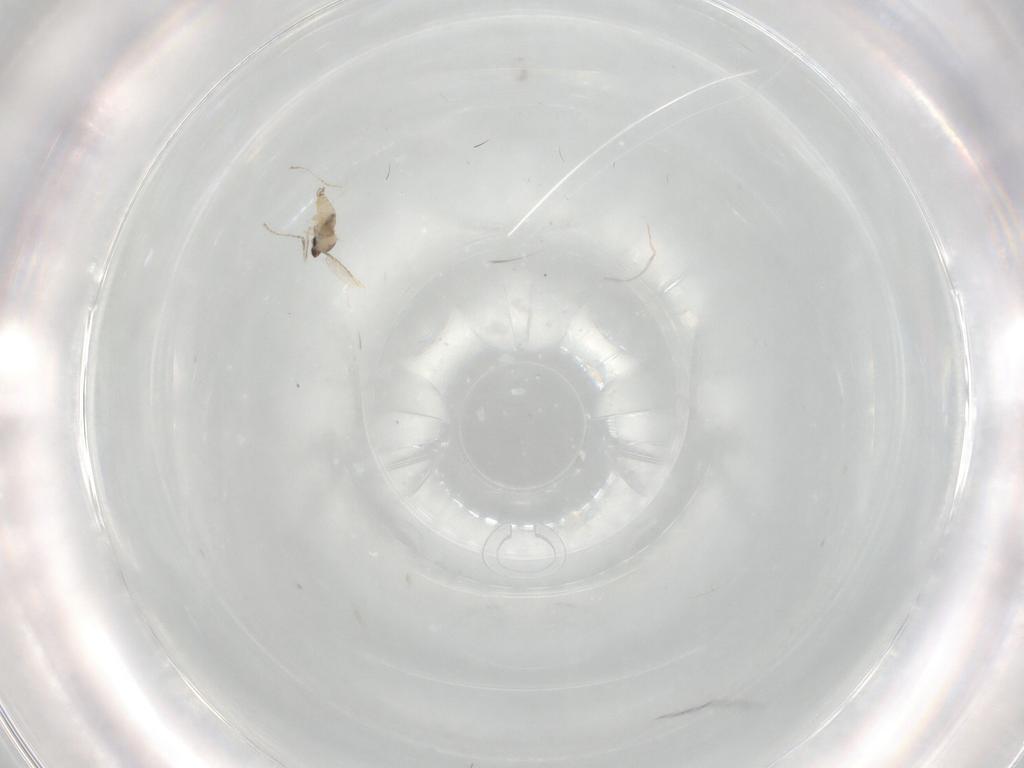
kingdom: Animalia
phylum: Arthropoda
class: Insecta
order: Diptera
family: Cecidomyiidae
